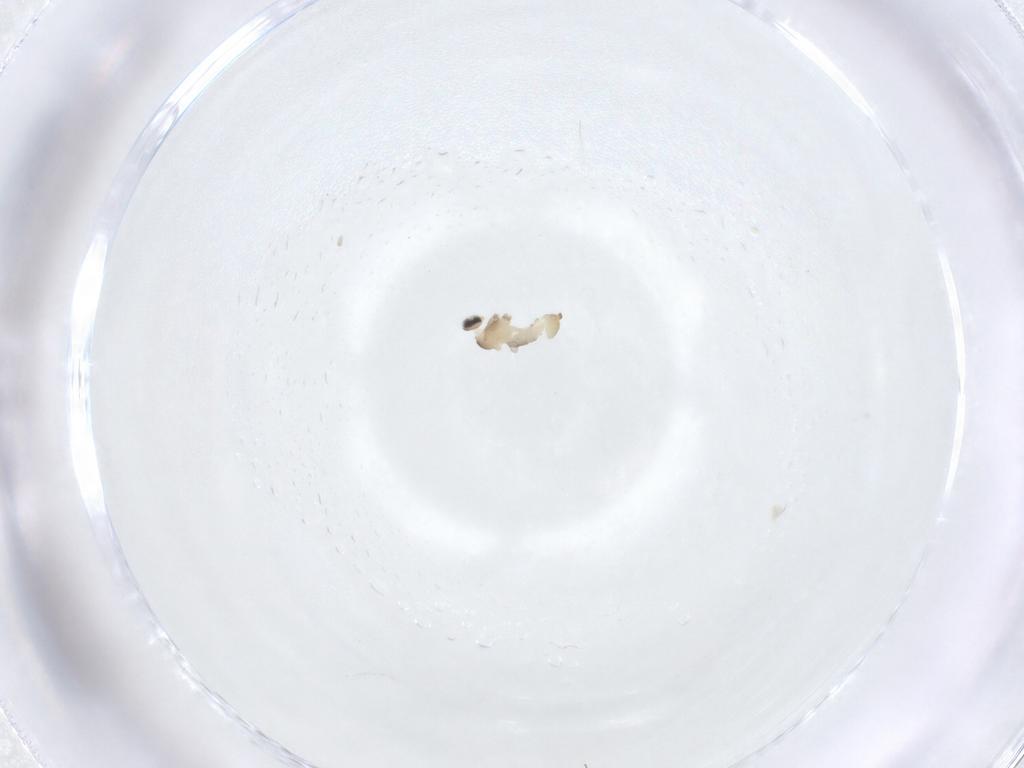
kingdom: Animalia
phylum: Arthropoda
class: Insecta
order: Diptera
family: Cecidomyiidae
